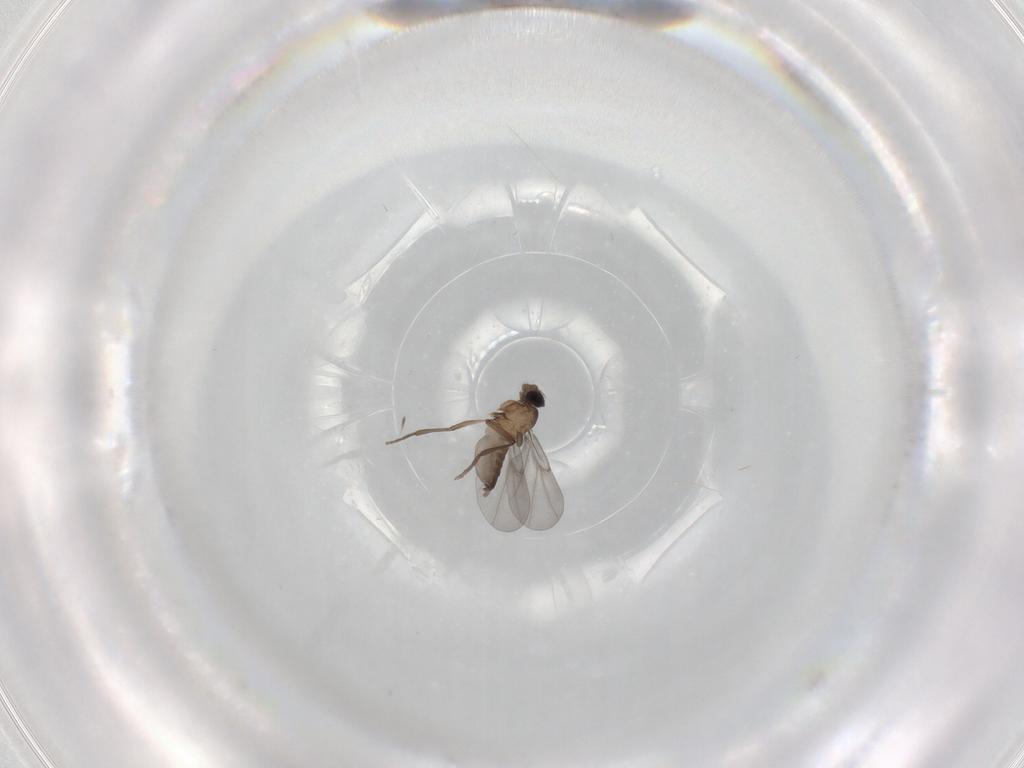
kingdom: Animalia
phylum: Arthropoda
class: Insecta
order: Diptera
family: Phoridae
